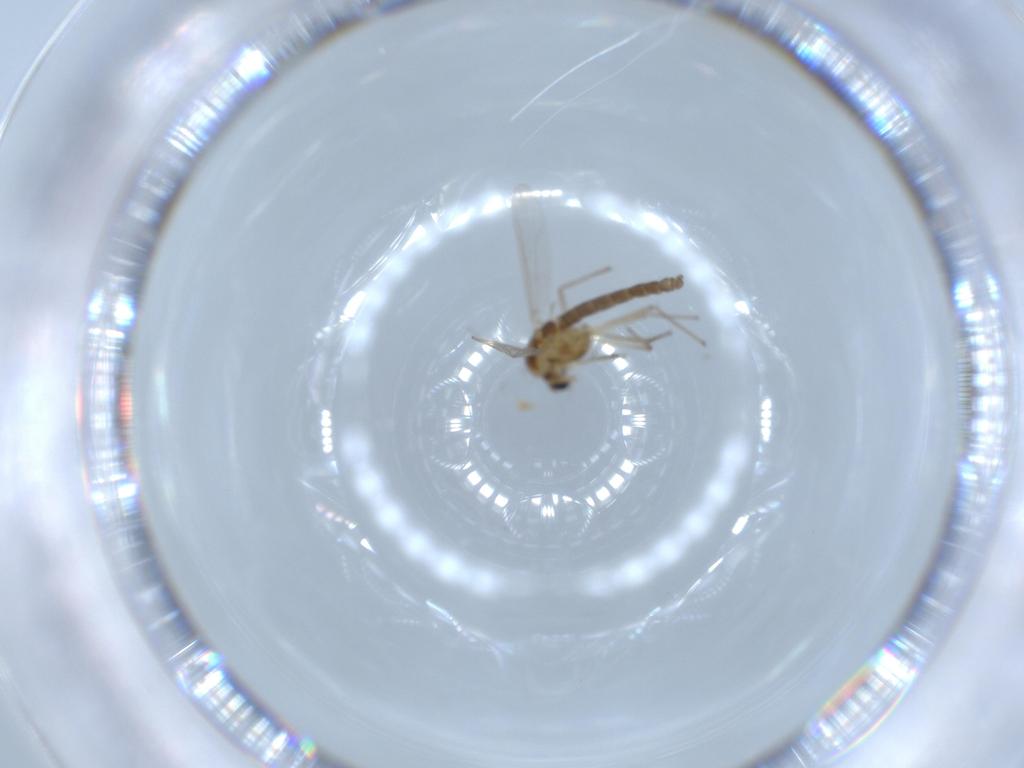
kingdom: Animalia
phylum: Arthropoda
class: Insecta
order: Diptera
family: Chironomidae
